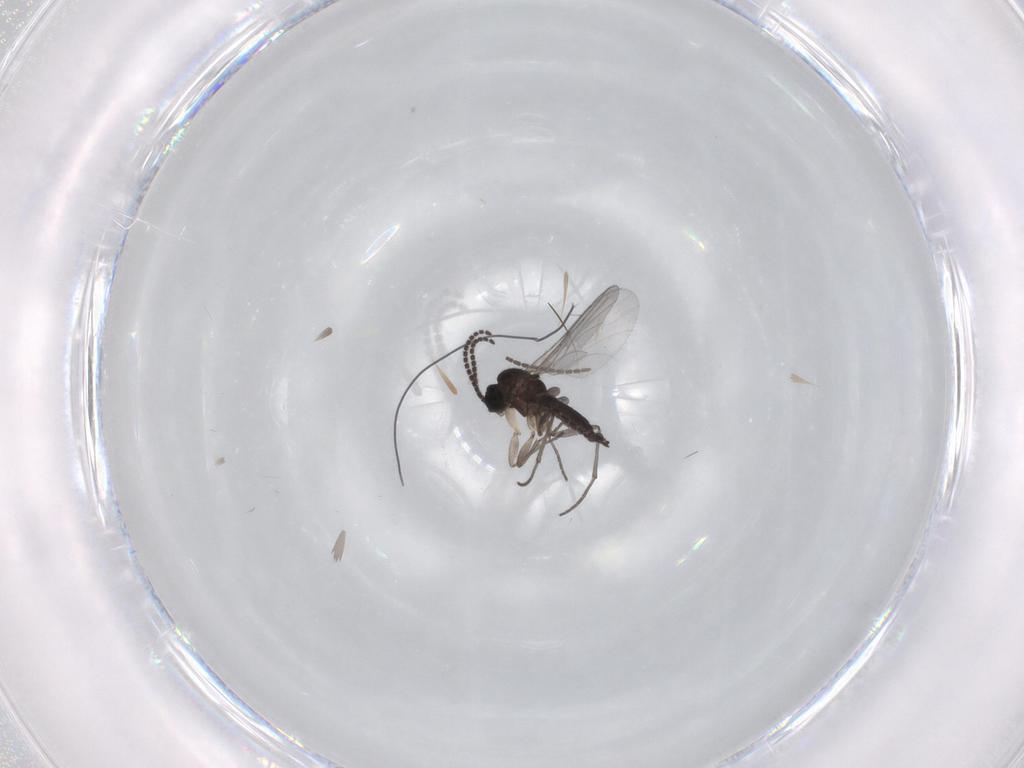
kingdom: Animalia
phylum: Arthropoda
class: Insecta
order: Diptera
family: Sciaridae
